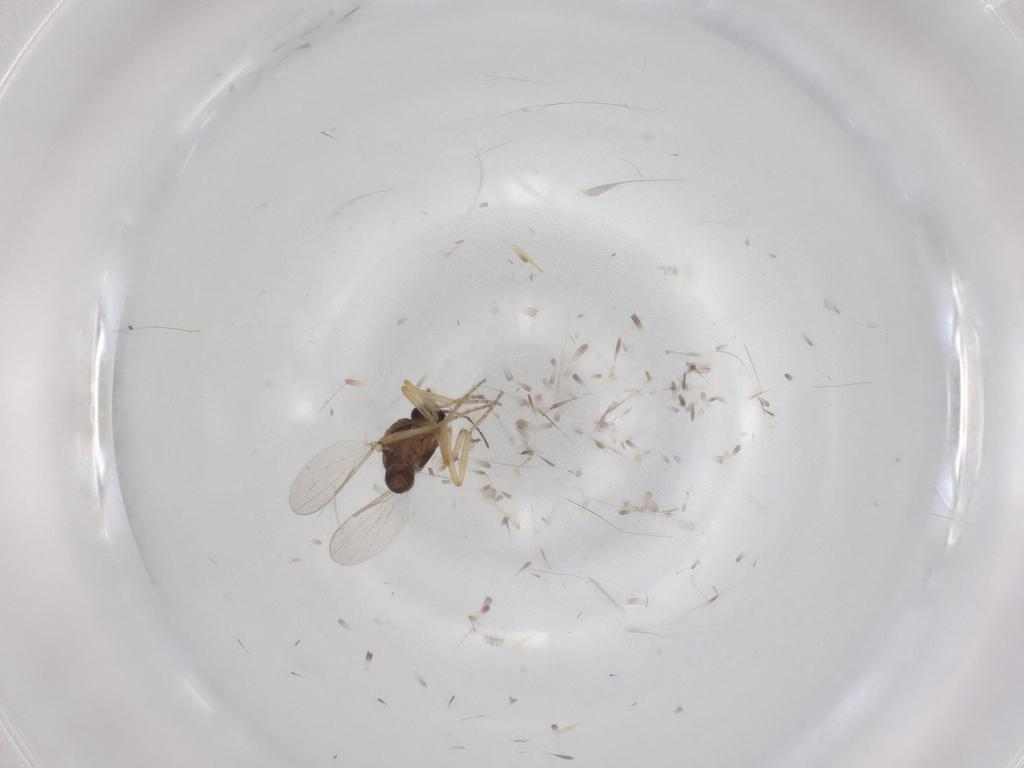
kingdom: Animalia
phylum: Arthropoda
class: Insecta
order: Diptera
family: Ceratopogonidae
